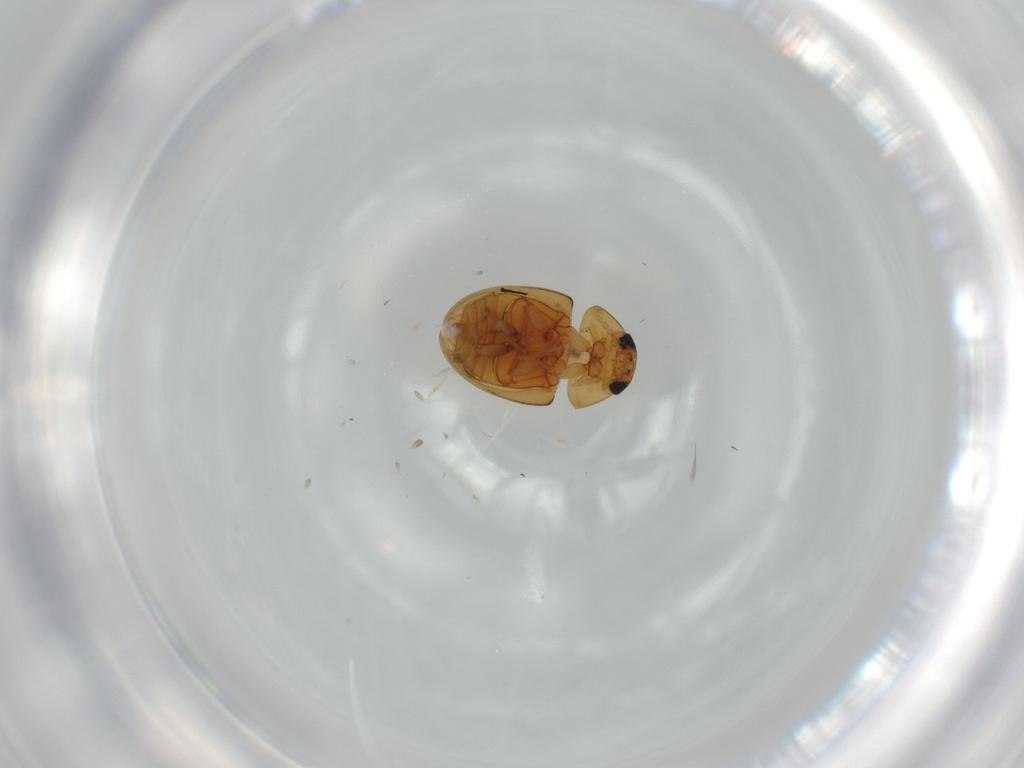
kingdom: Animalia
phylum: Arthropoda
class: Insecta
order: Coleoptera
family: Phalacridae
